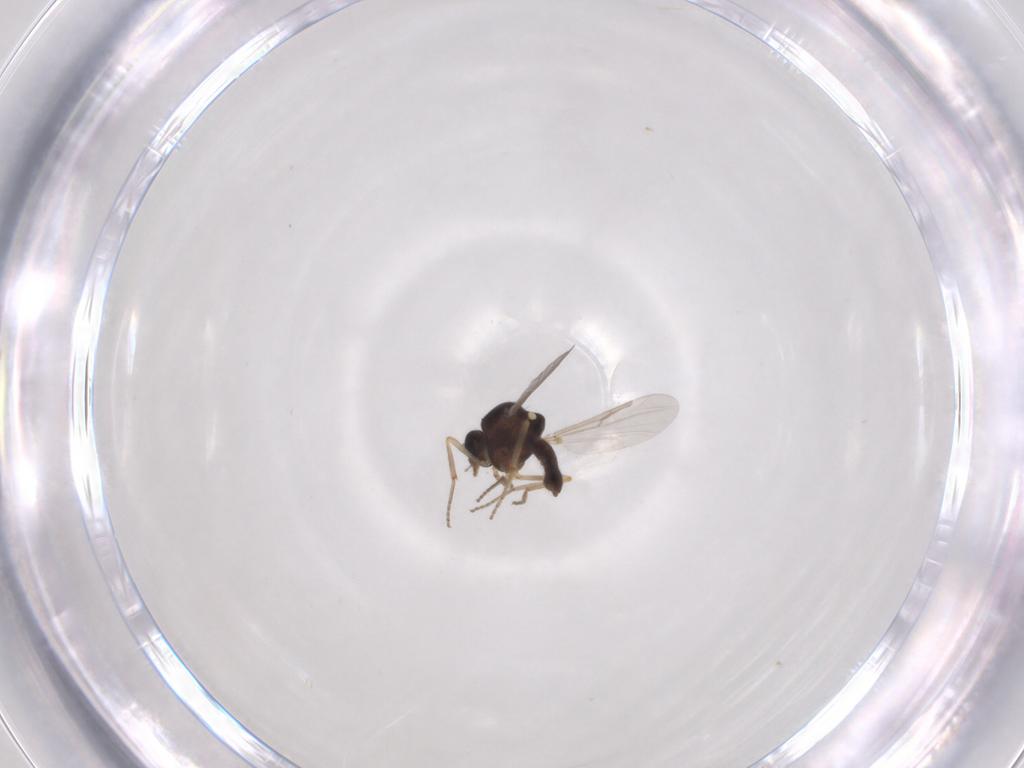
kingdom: Animalia
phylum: Arthropoda
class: Insecta
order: Diptera
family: Ceratopogonidae
